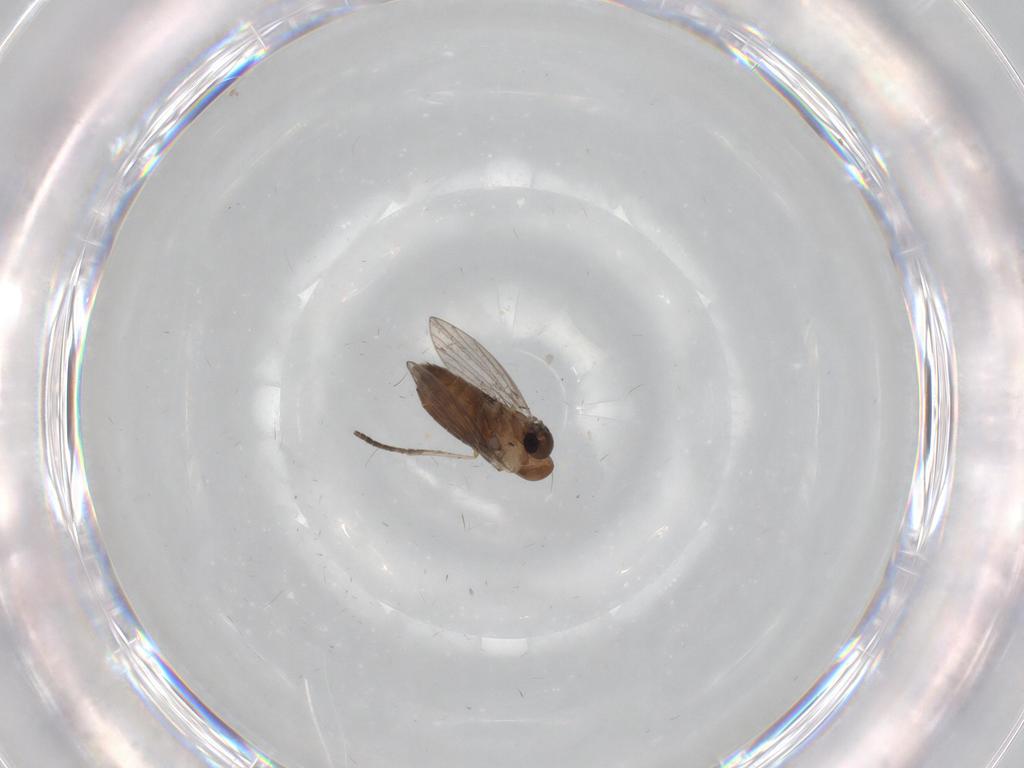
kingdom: Animalia
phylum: Arthropoda
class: Insecta
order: Diptera
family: Psychodidae
